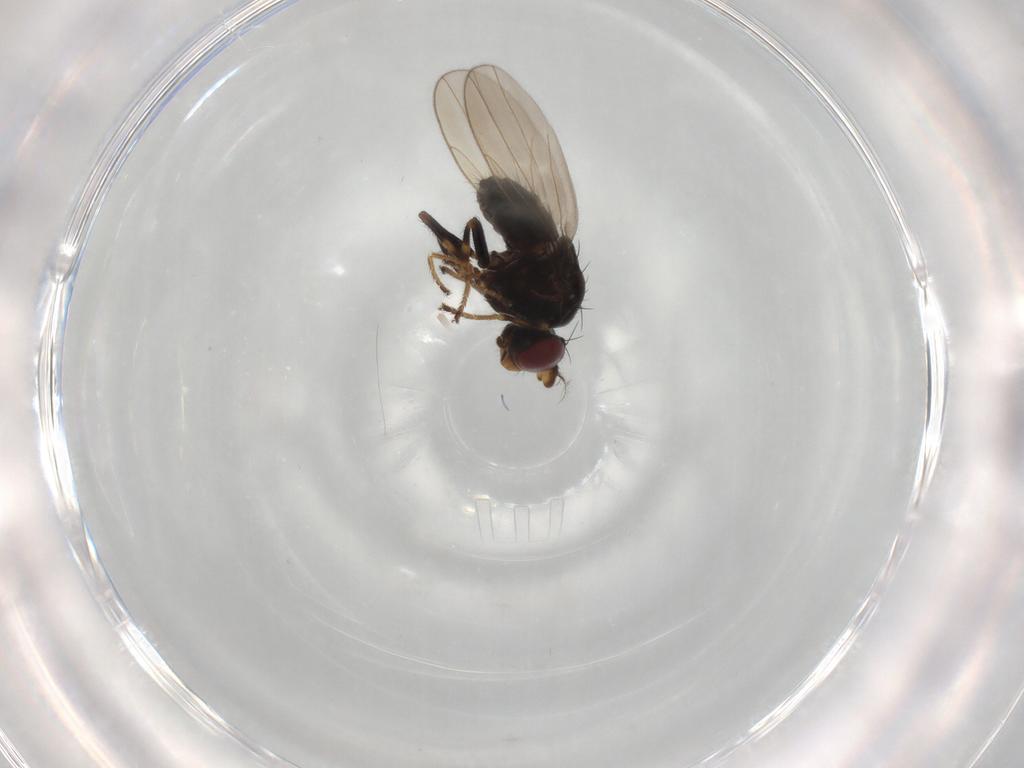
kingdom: Animalia
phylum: Arthropoda
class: Insecta
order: Diptera
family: Ephydridae
